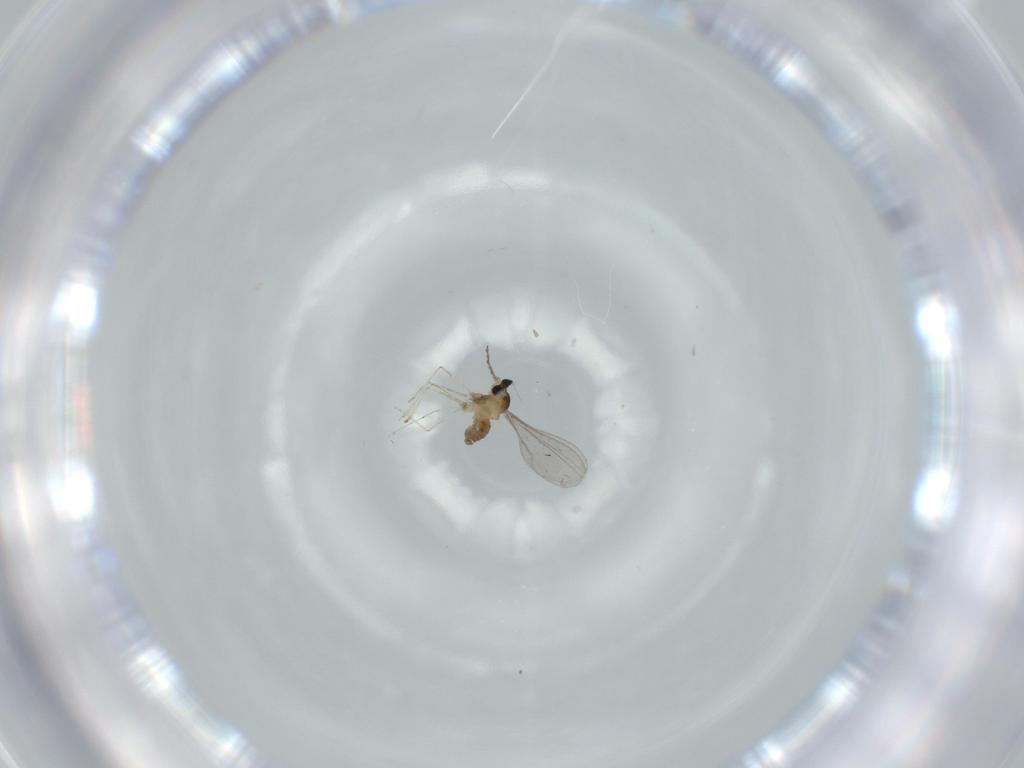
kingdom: Animalia
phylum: Arthropoda
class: Insecta
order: Diptera
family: Cecidomyiidae
